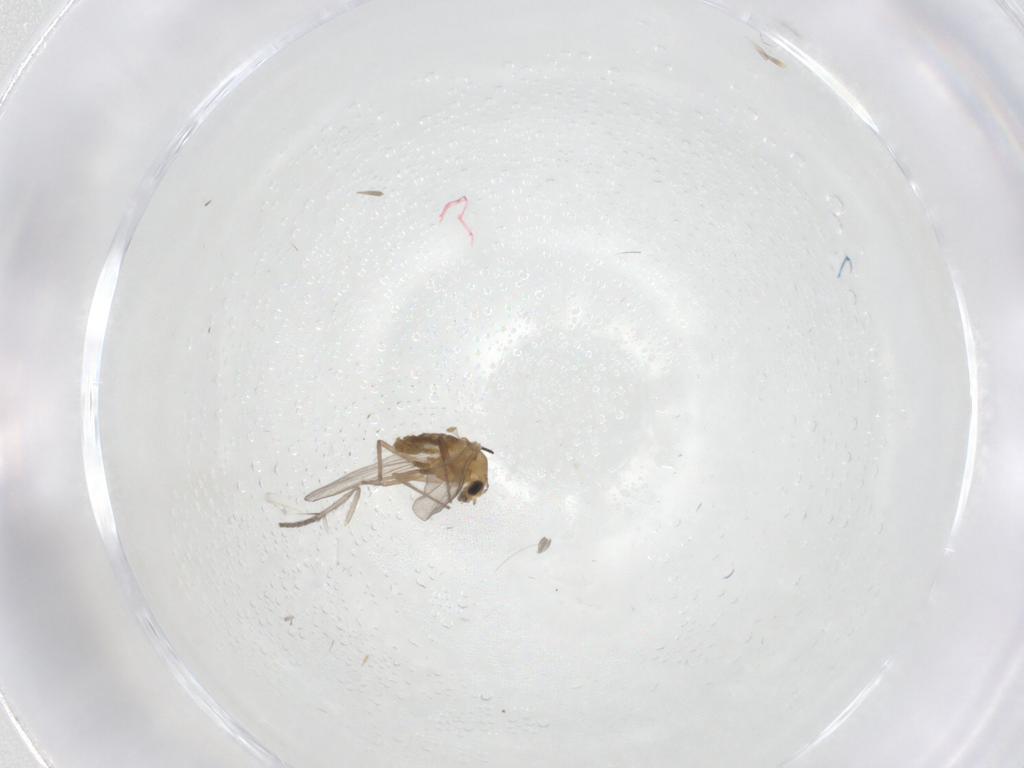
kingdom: Animalia
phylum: Arthropoda
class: Insecta
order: Diptera
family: Chironomidae
